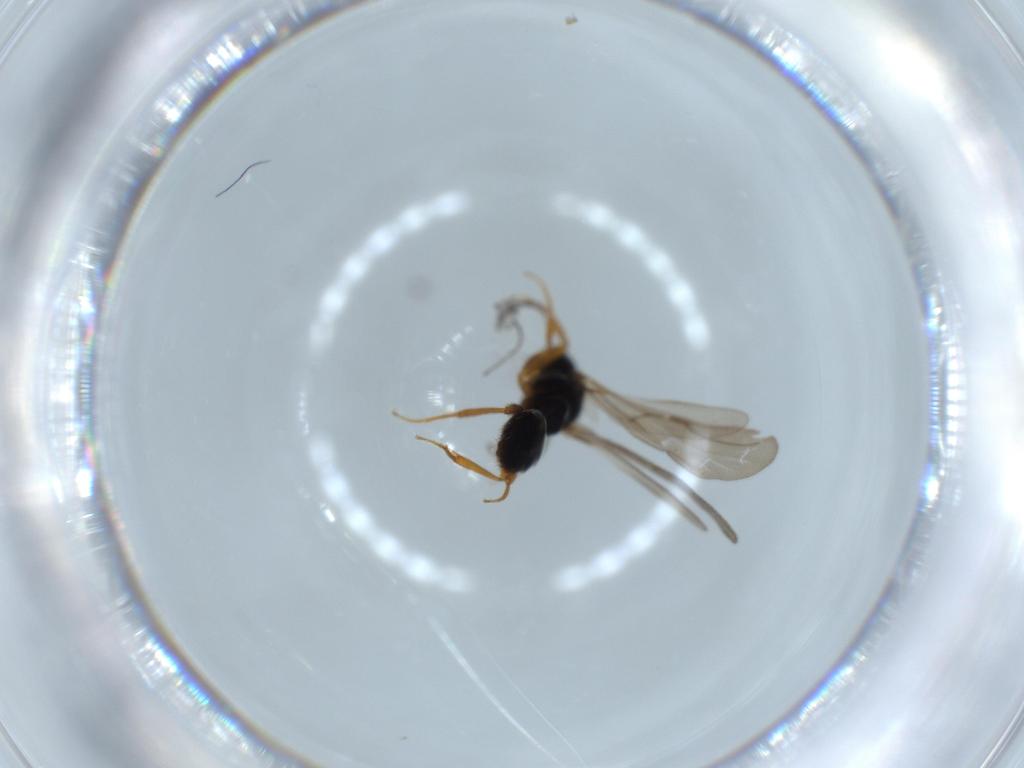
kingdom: Animalia
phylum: Arthropoda
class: Insecta
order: Hymenoptera
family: Bethylidae
